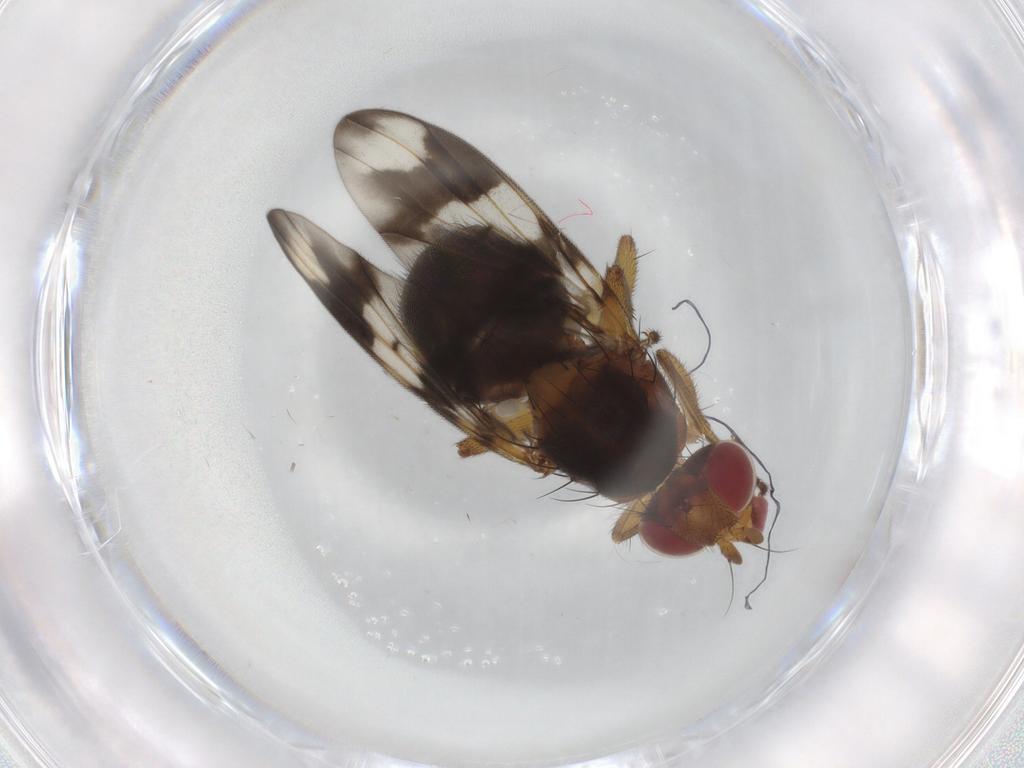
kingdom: Animalia
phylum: Arthropoda
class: Insecta
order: Diptera
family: Richardiidae
